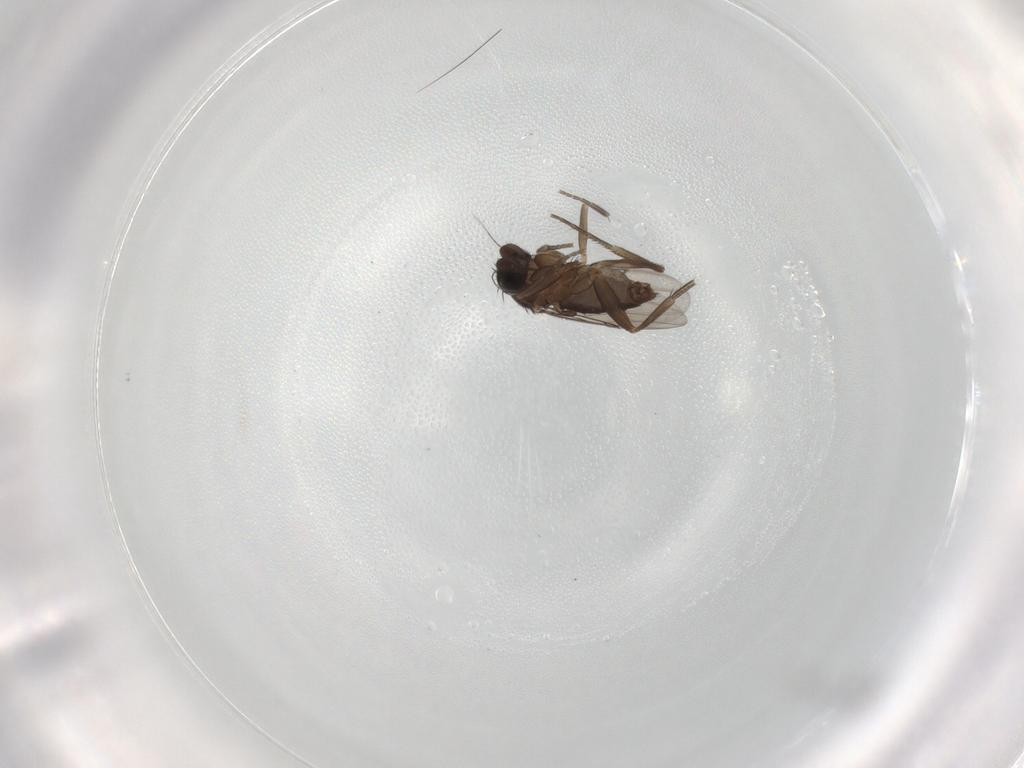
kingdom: Animalia
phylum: Arthropoda
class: Insecta
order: Diptera
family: Phoridae
